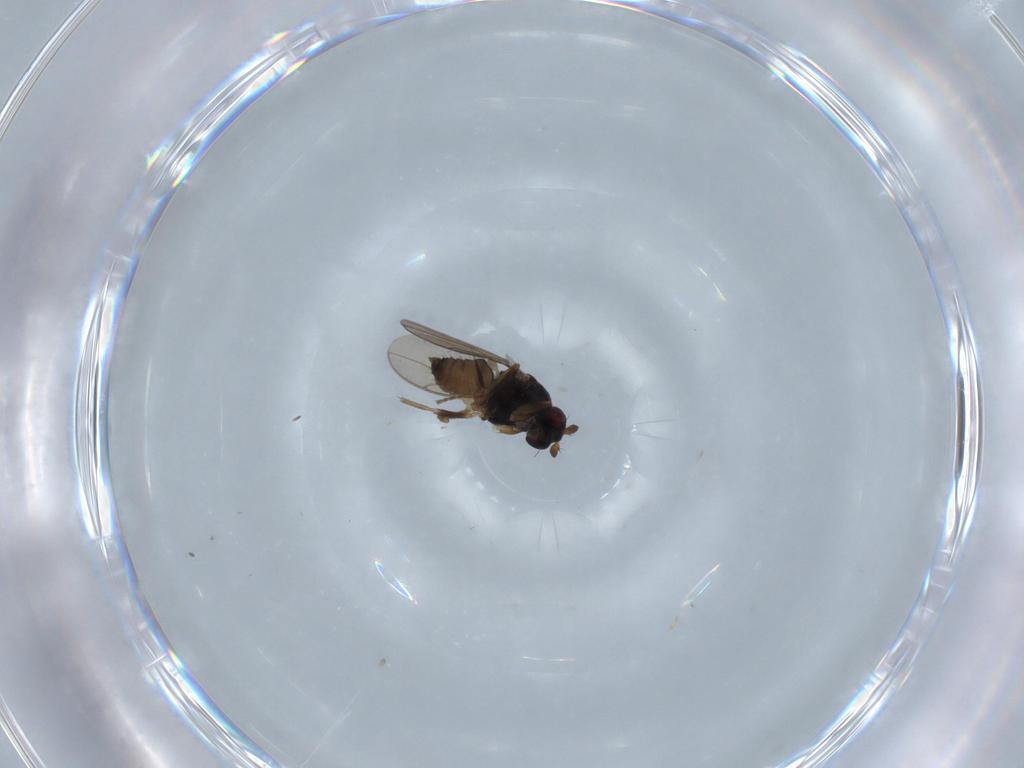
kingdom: Animalia
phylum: Arthropoda
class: Insecta
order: Diptera
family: Sphaeroceridae
